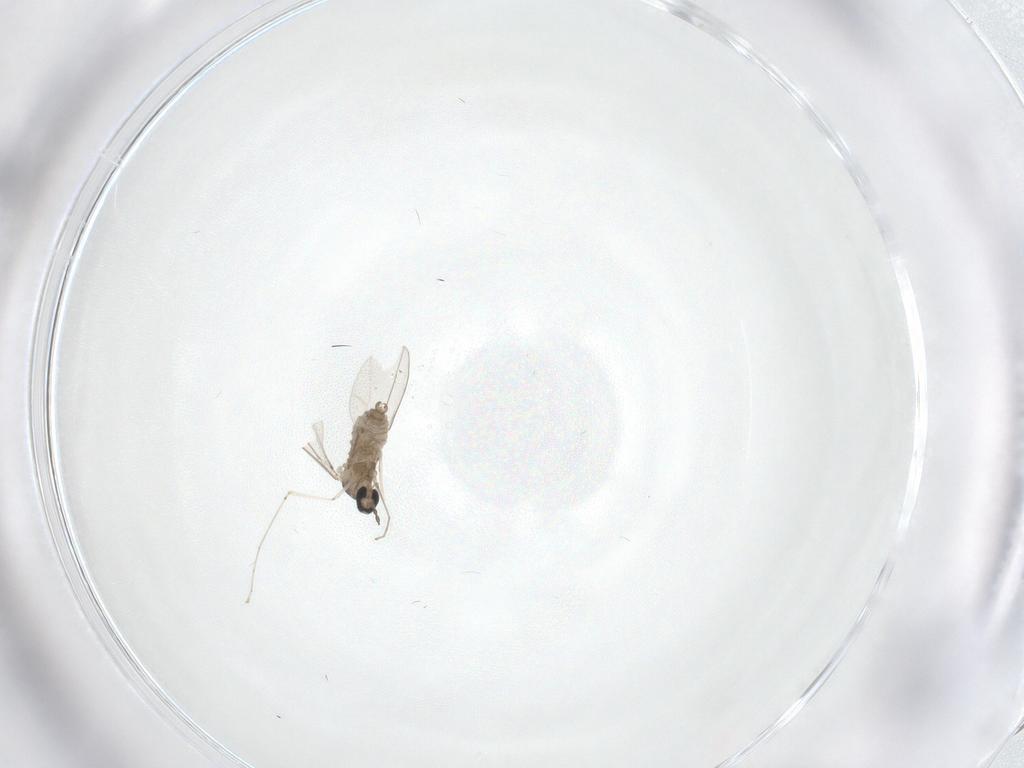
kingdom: Animalia
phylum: Arthropoda
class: Insecta
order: Diptera
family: Cecidomyiidae
